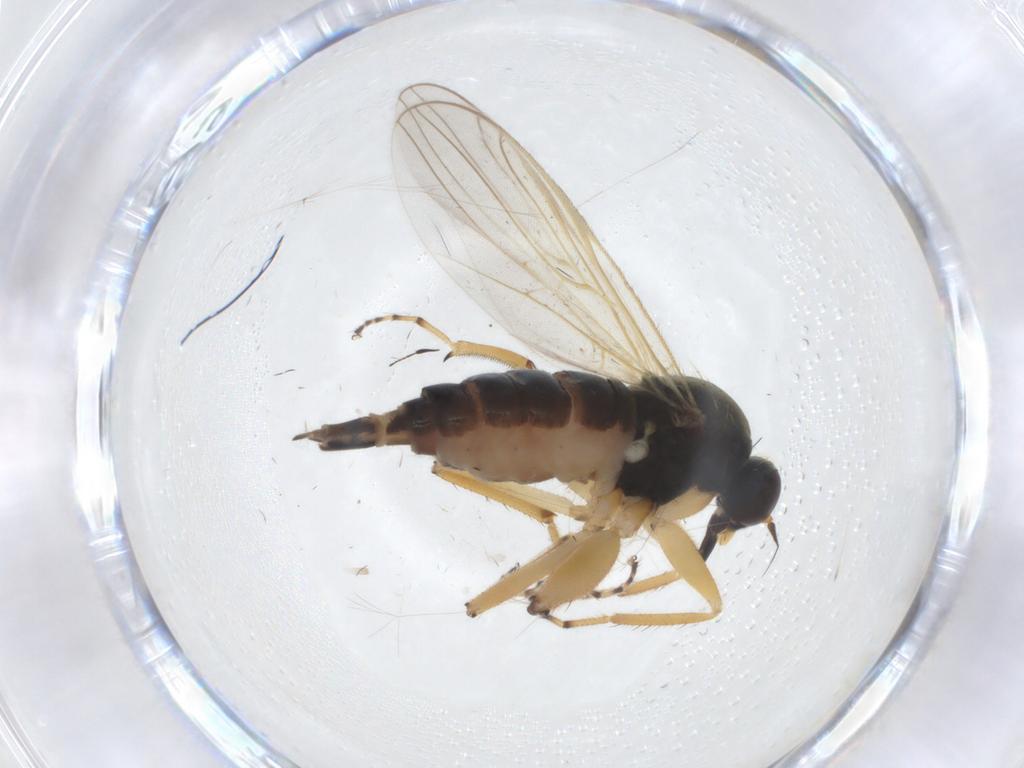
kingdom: Animalia
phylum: Arthropoda
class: Insecta
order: Diptera
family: Hybotidae
